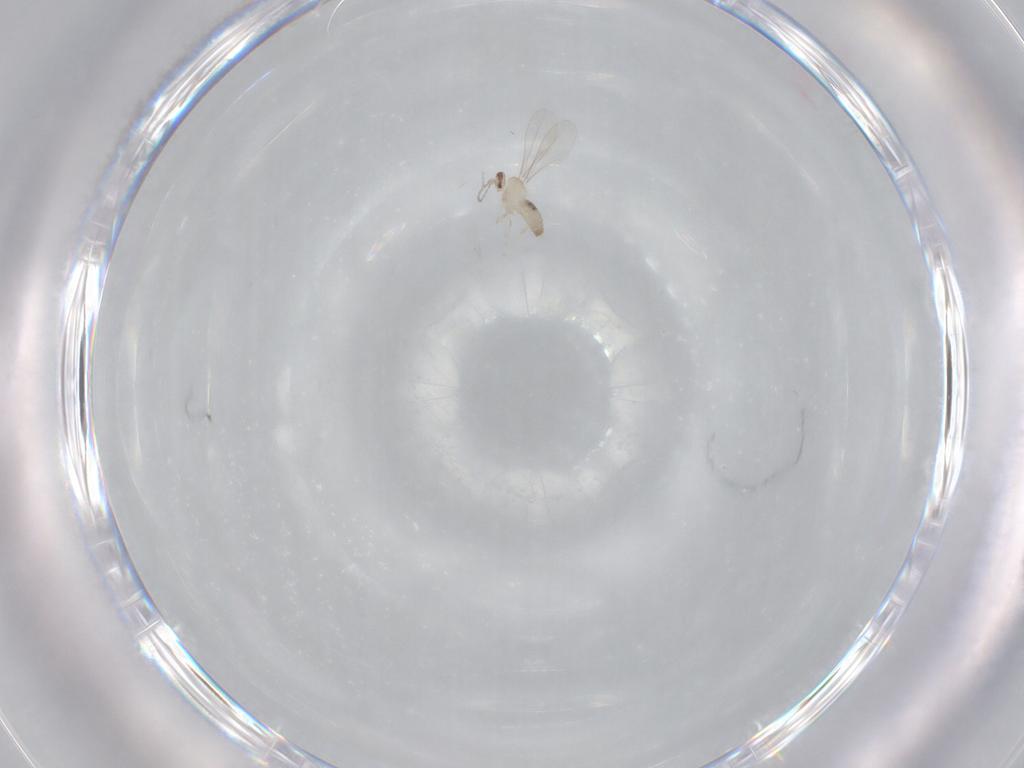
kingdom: Animalia
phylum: Arthropoda
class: Insecta
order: Diptera
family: Cecidomyiidae
